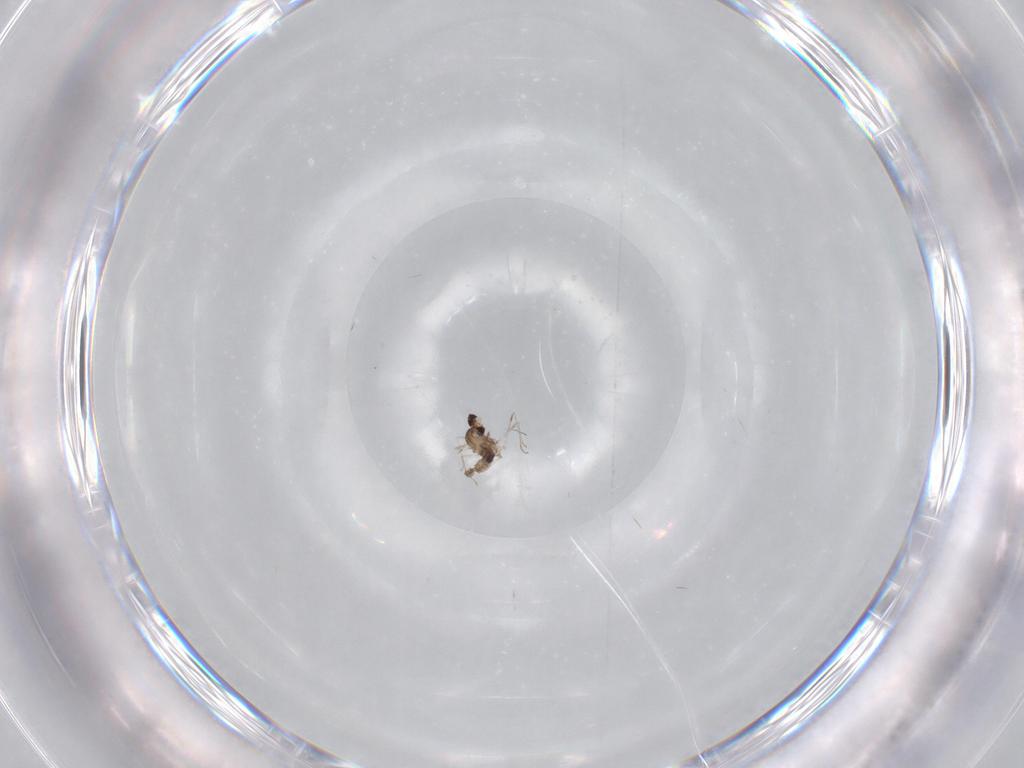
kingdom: Animalia
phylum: Arthropoda
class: Insecta
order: Diptera
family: Cecidomyiidae
